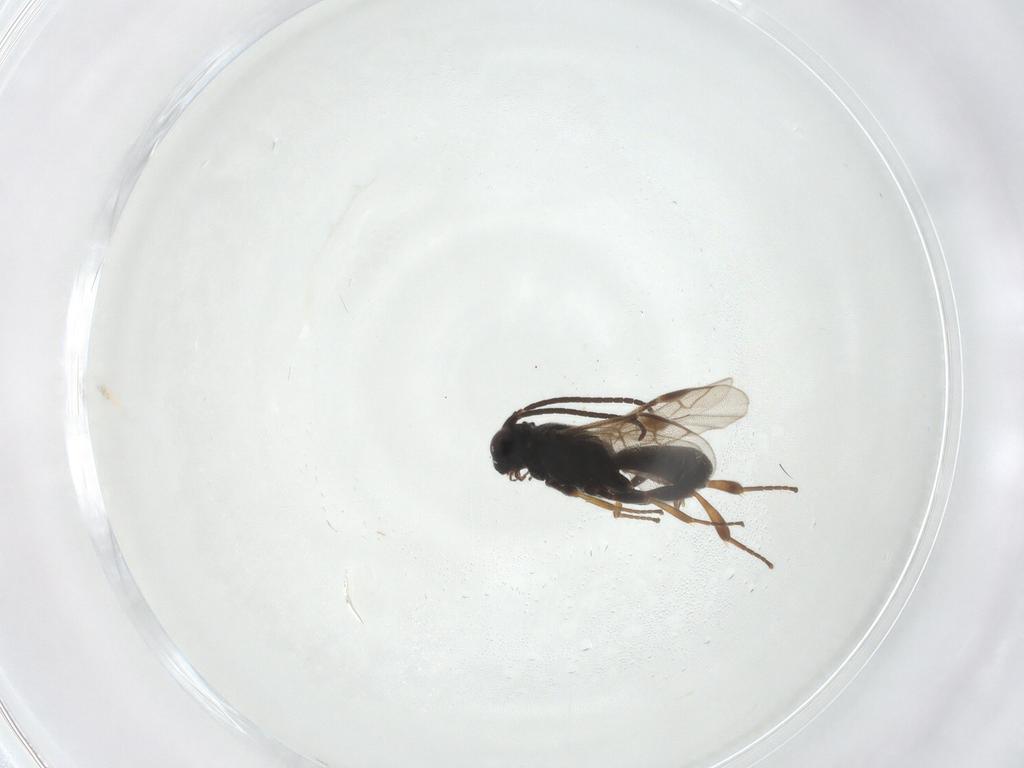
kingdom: Animalia
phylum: Arthropoda
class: Insecta
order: Hymenoptera
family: Braconidae
